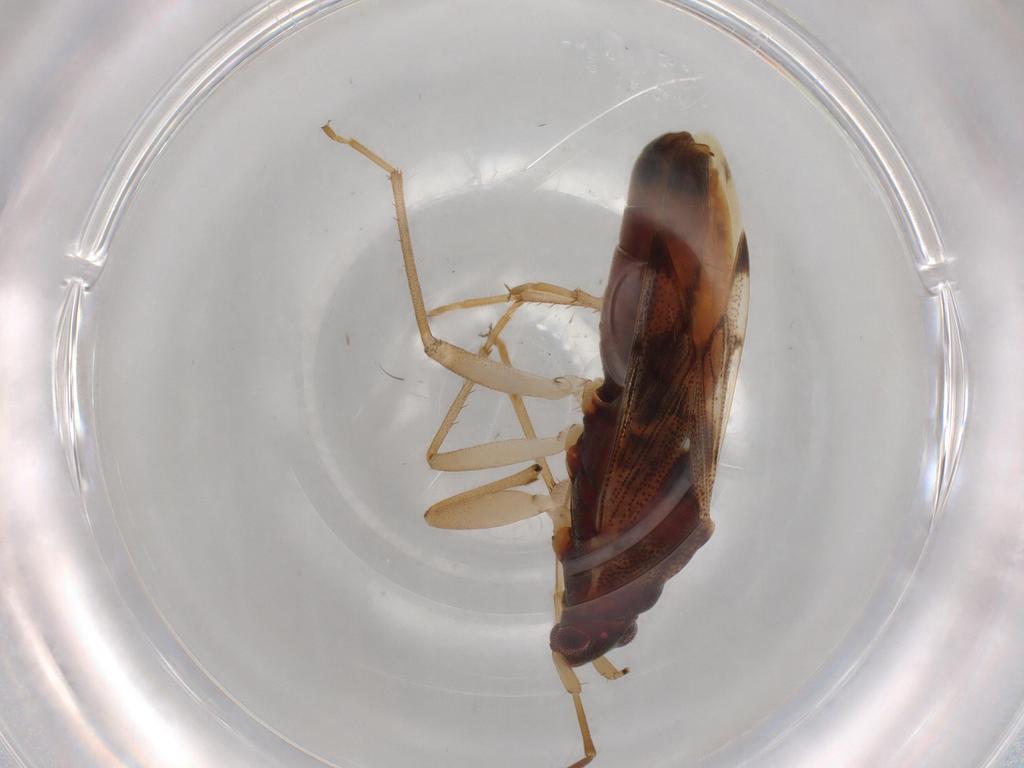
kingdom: Animalia
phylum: Arthropoda
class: Insecta
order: Hemiptera
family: Rhyparochromidae
